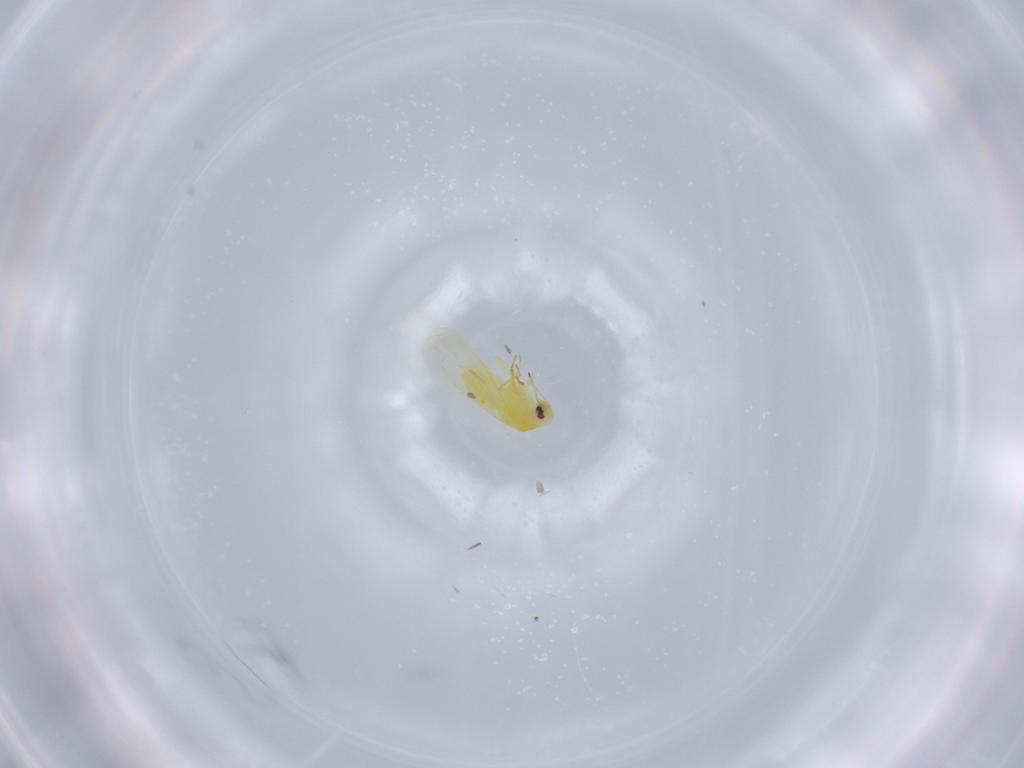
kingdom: Animalia
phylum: Arthropoda
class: Insecta
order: Hemiptera
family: Aleyrodidae
